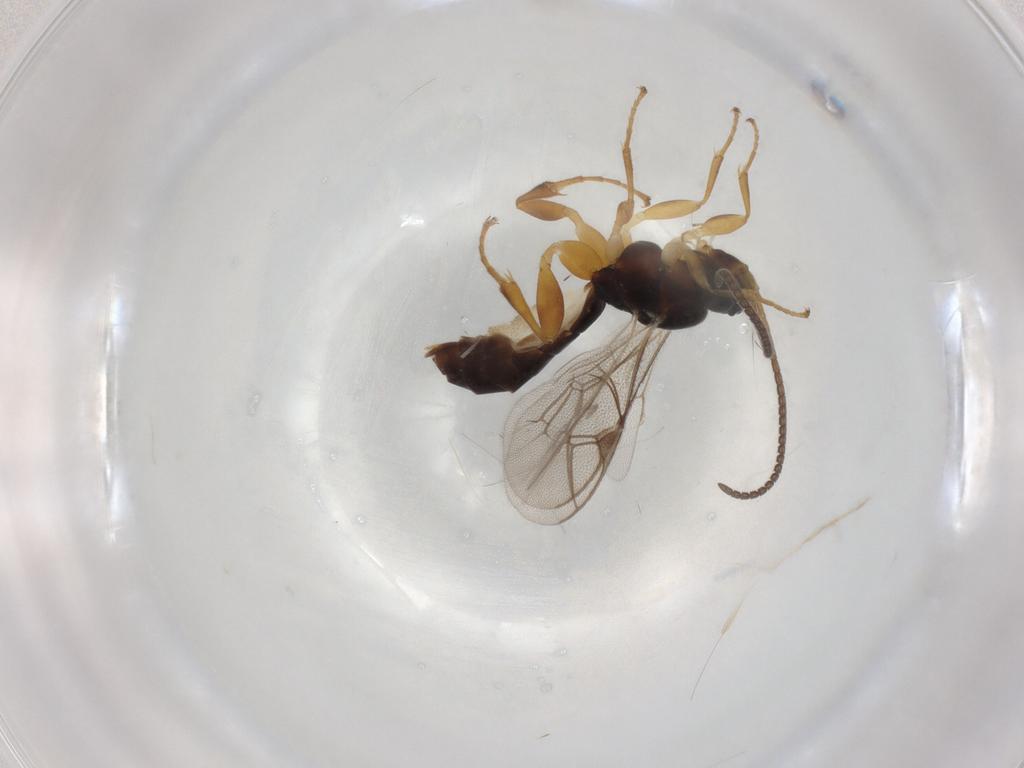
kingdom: Animalia
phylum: Arthropoda
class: Insecta
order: Hymenoptera
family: Ichneumonidae
